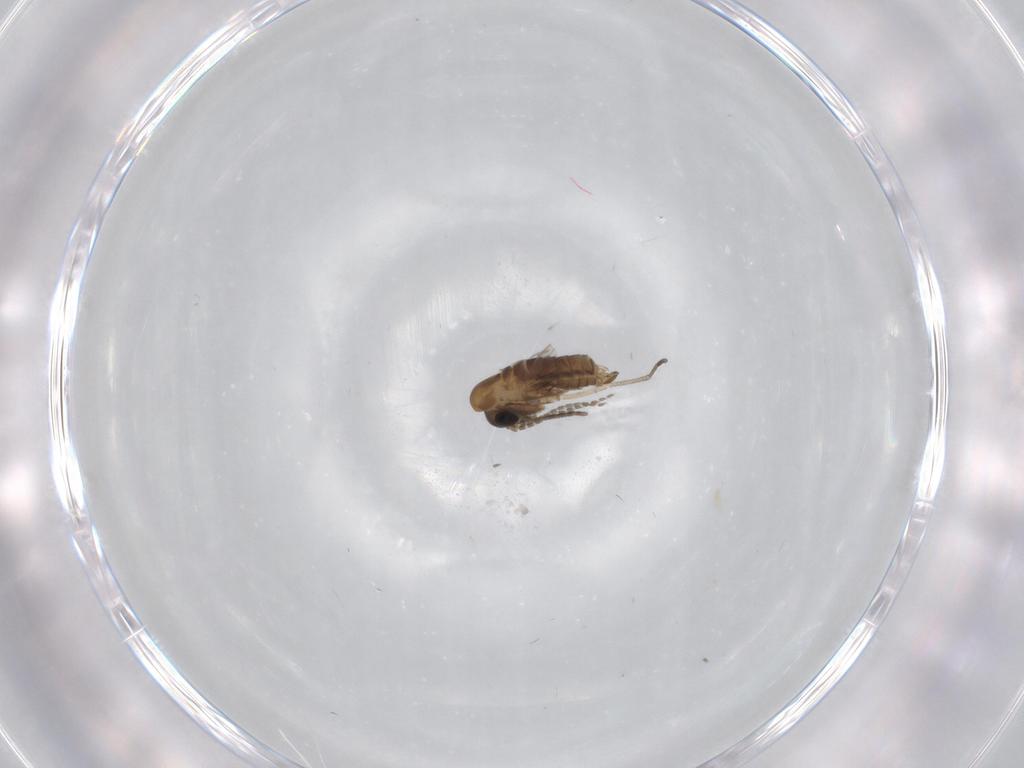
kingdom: Animalia
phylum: Arthropoda
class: Insecta
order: Diptera
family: Psychodidae
